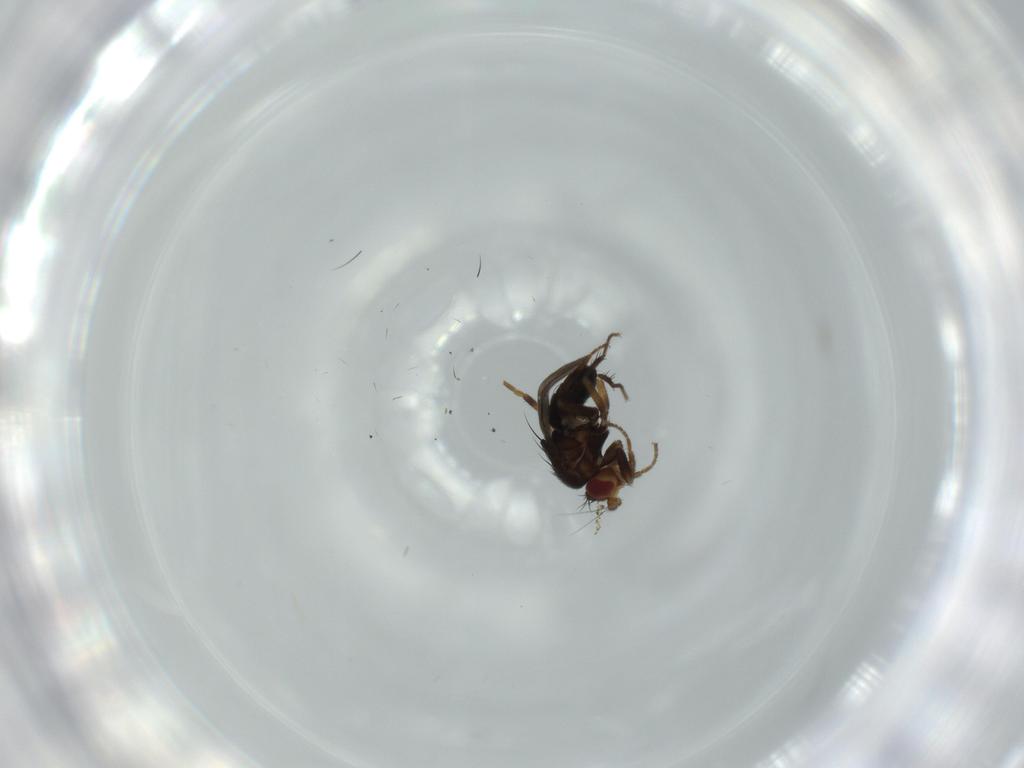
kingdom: Animalia
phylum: Arthropoda
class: Insecta
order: Diptera
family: Sphaeroceridae
